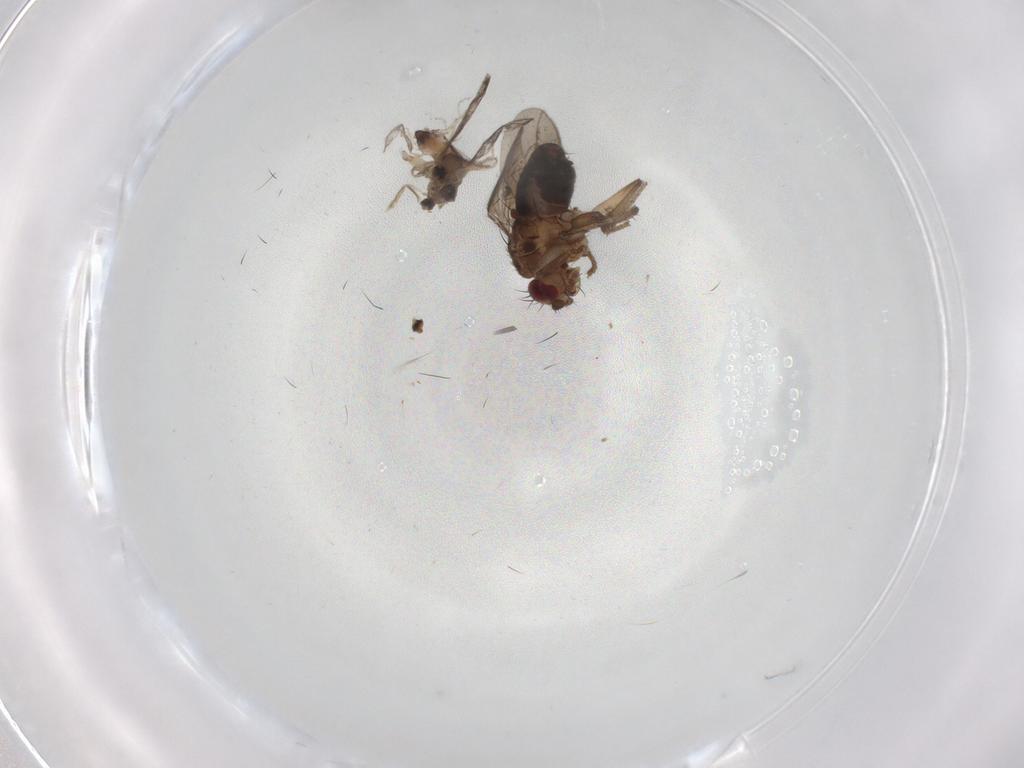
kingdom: Animalia
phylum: Arthropoda
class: Insecta
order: Diptera
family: Sphaeroceridae
